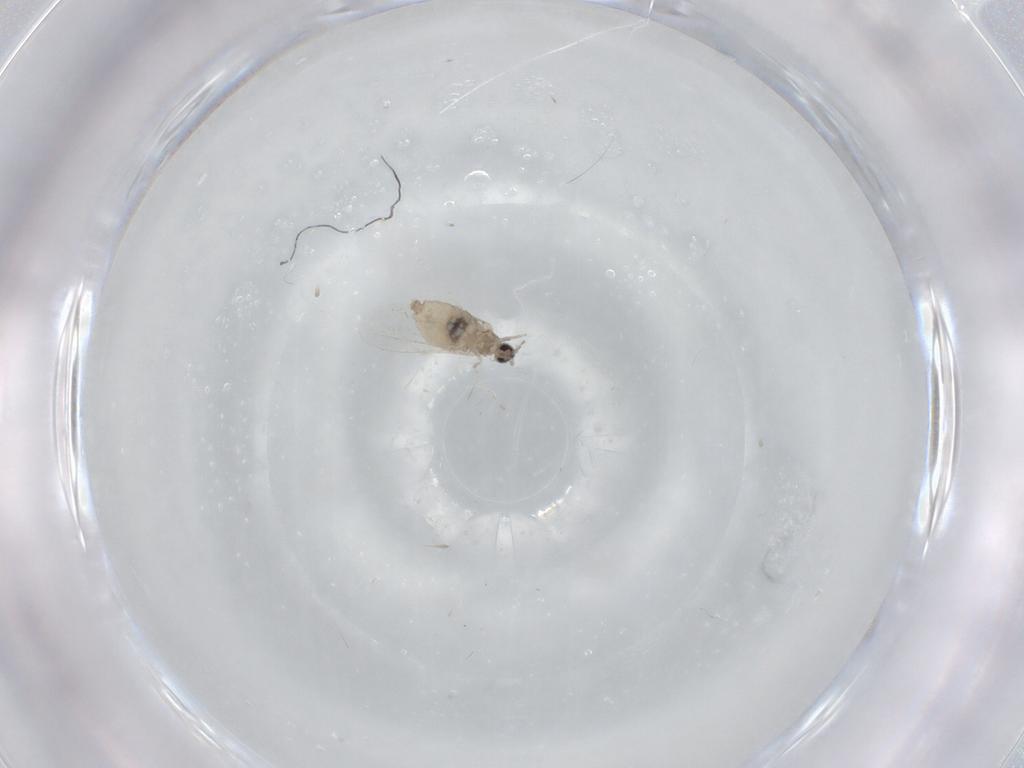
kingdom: Animalia
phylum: Arthropoda
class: Insecta
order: Diptera
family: Cecidomyiidae
